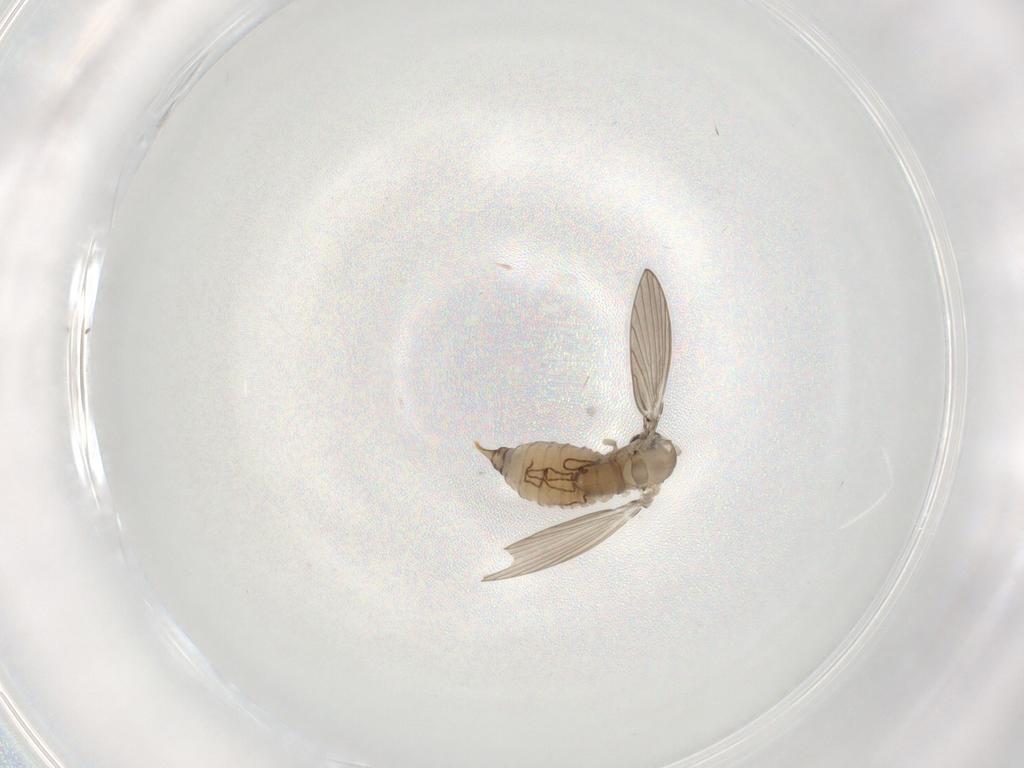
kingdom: Animalia
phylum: Arthropoda
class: Insecta
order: Diptera
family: Psychodidae
